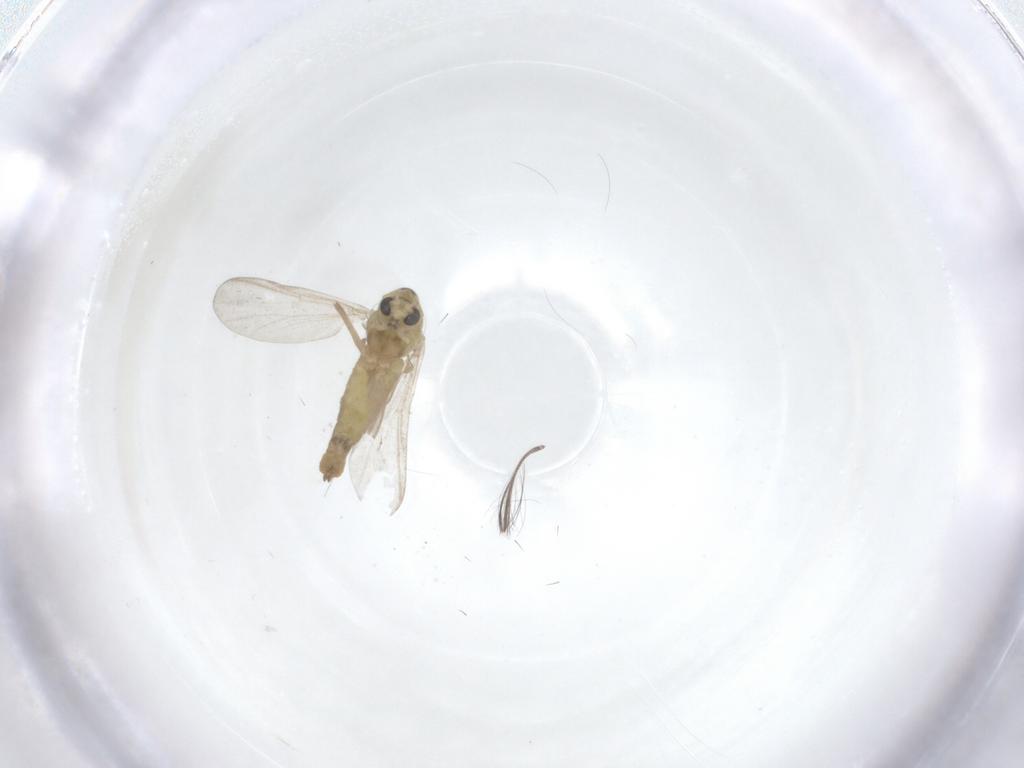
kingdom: Animalia
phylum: Arthropoda
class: Insecta
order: Diptera
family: Chironomidae
